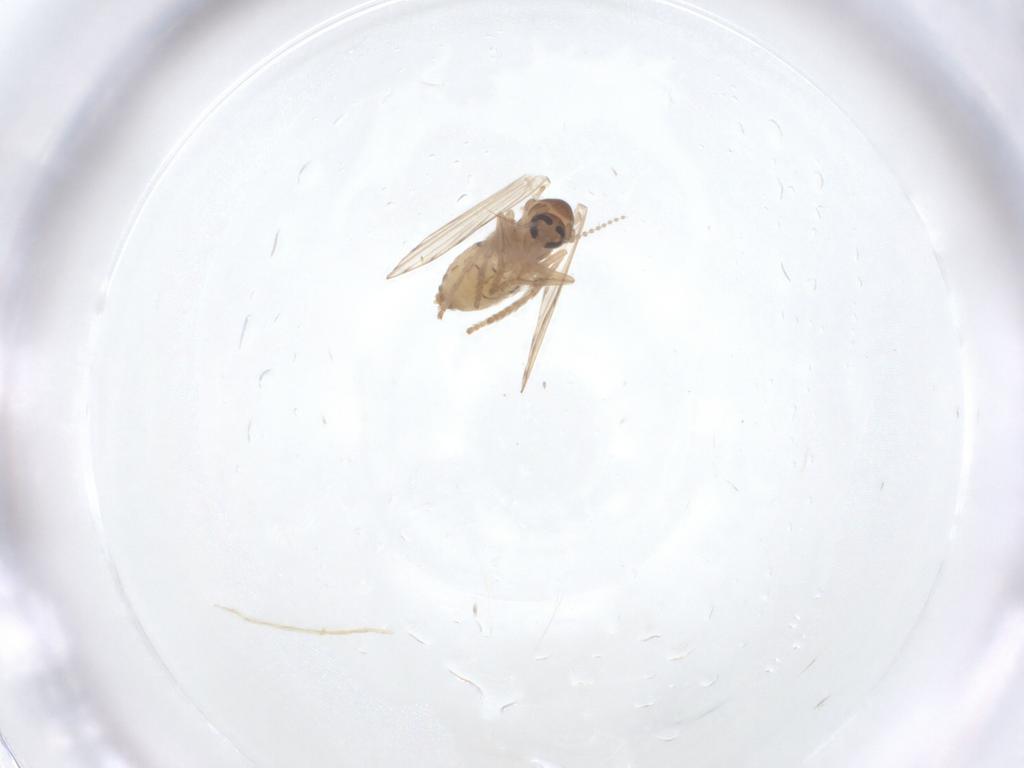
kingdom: Animalia
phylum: Arthropoda
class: Insecta
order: Diptera
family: Psychodidae
